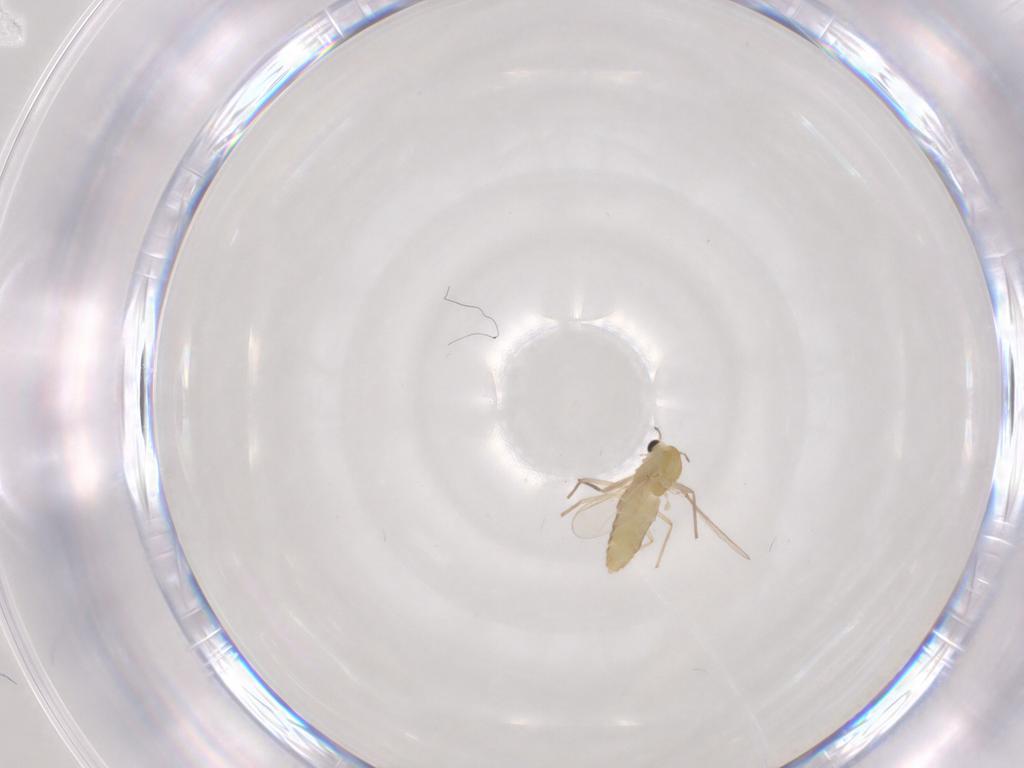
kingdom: Animalia
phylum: Arthropoda
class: Insecta
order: Diptera
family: Chironomidae
